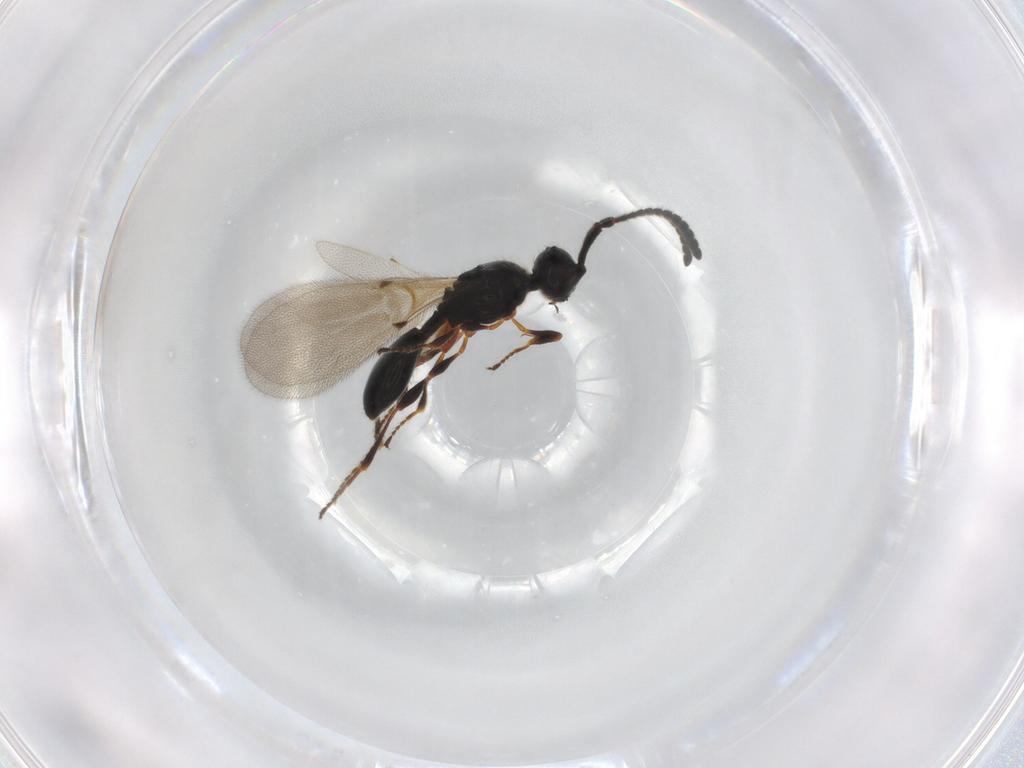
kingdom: Animalia
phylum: Arthropoda
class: Insecta
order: Hymenoptera
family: Diapriidae
